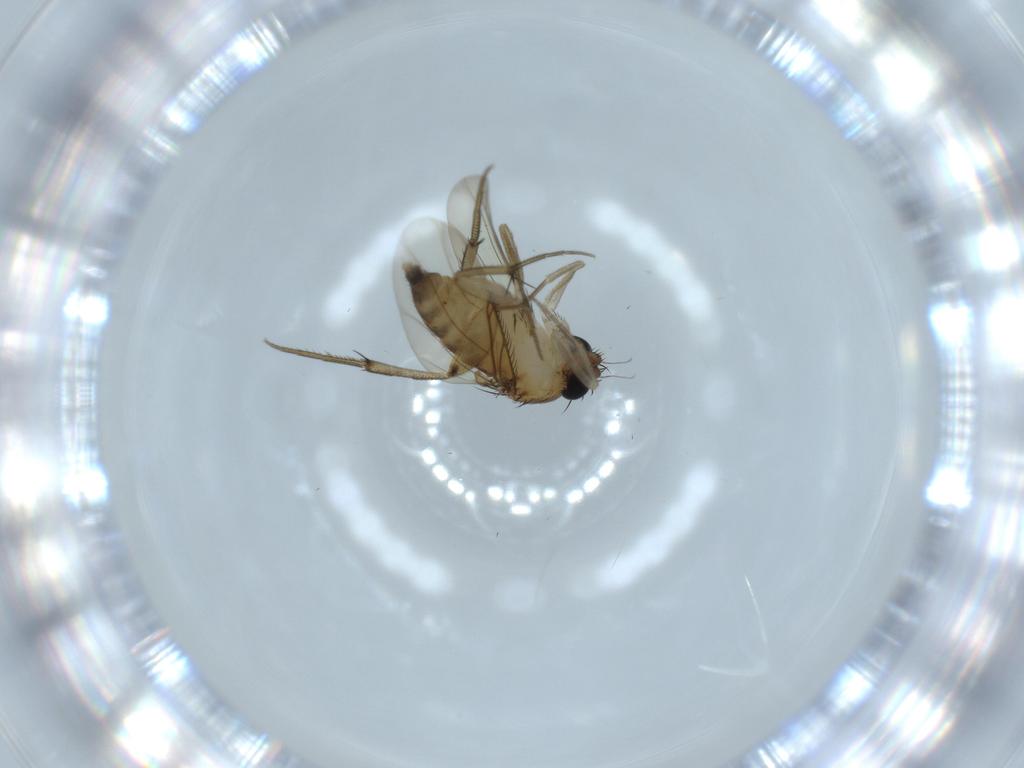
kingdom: Animalia
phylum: Arthropoda
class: Insecta
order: Diptera
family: Phoridae
